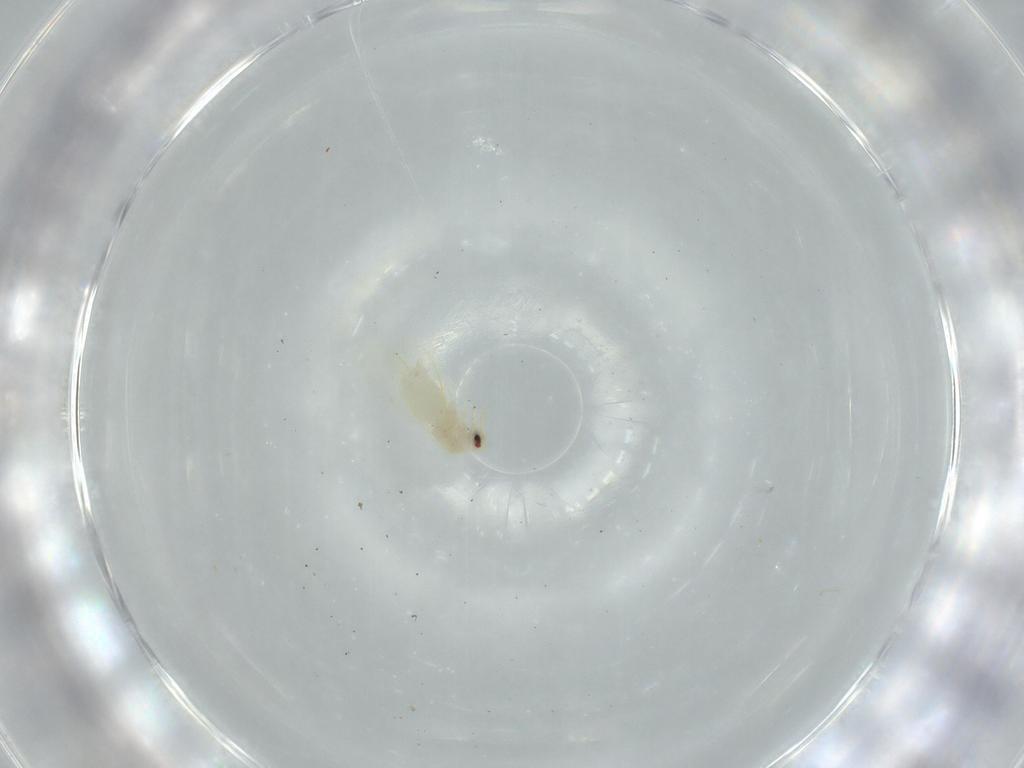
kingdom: Animalia
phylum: Arthropoda
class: Insecta
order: Hemiptera
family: Aleyrodidae
